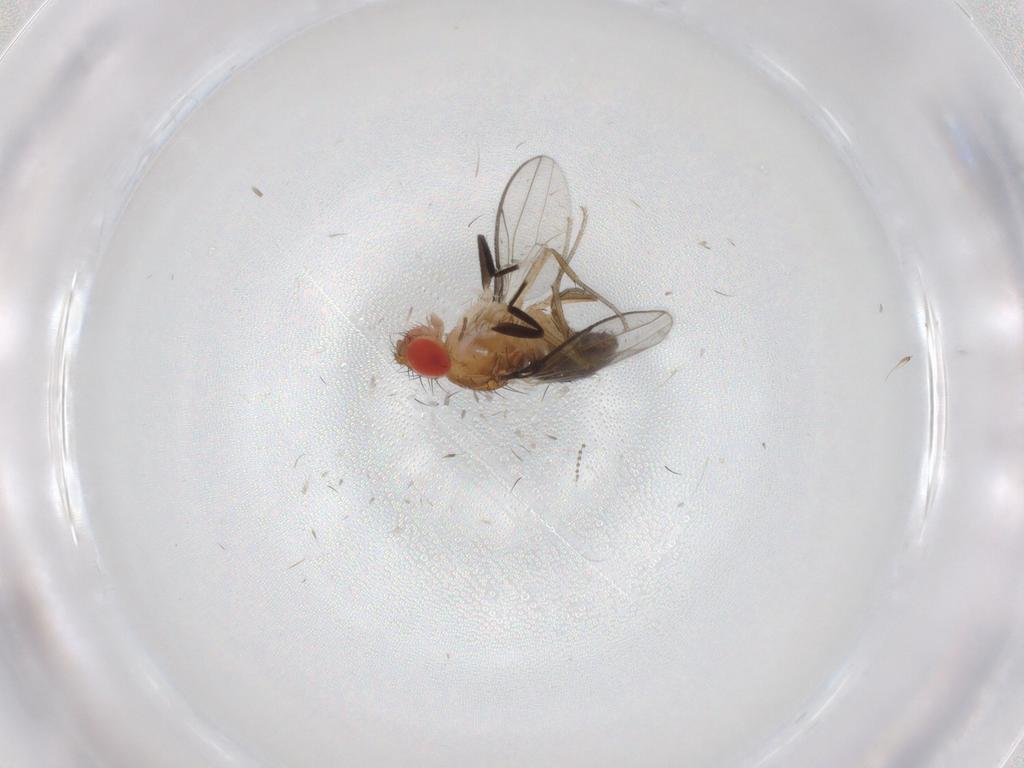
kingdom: Animalia
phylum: Arthropoda
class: Insecta
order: Diptera
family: Drosophilidae
